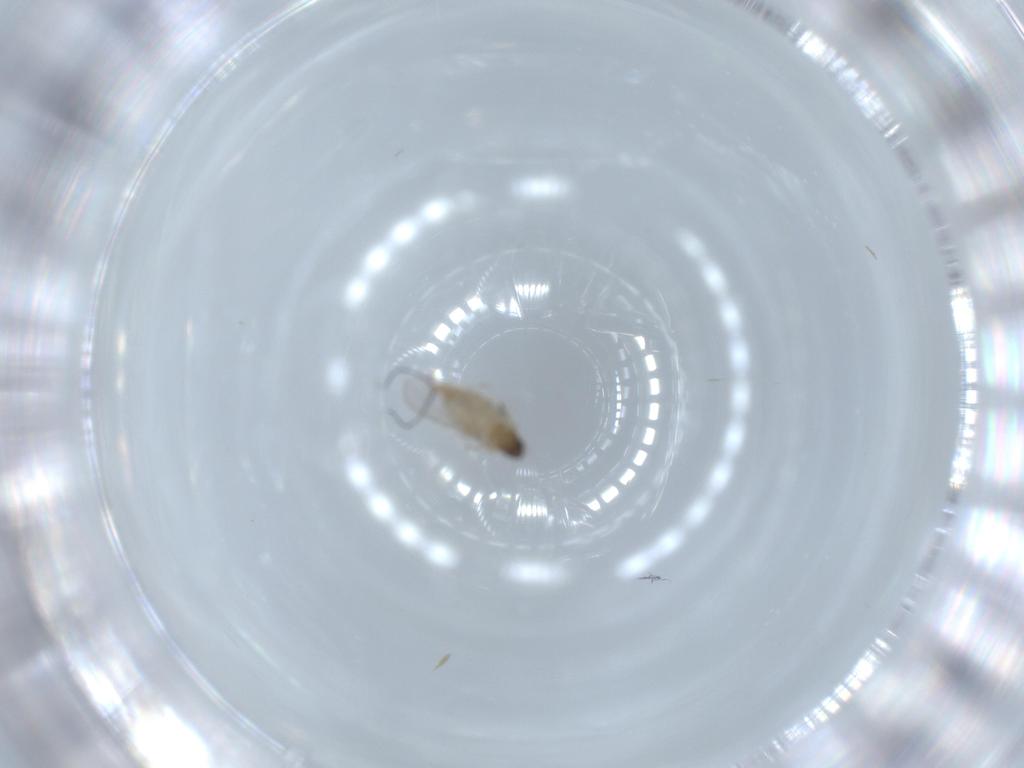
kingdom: Animalia
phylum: Arthropoda
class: Insecta
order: Diptera
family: Cecidomyiidae
